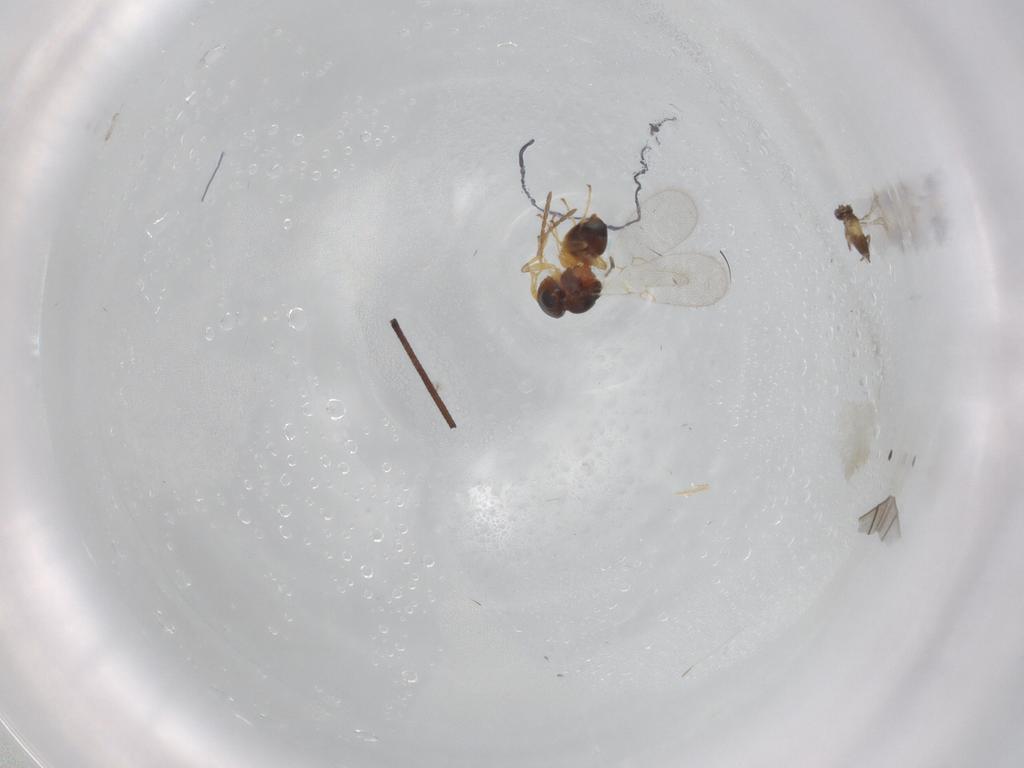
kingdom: Animalia
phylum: Arthropoda
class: Insecta
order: Hymenoptera
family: Figitidae
